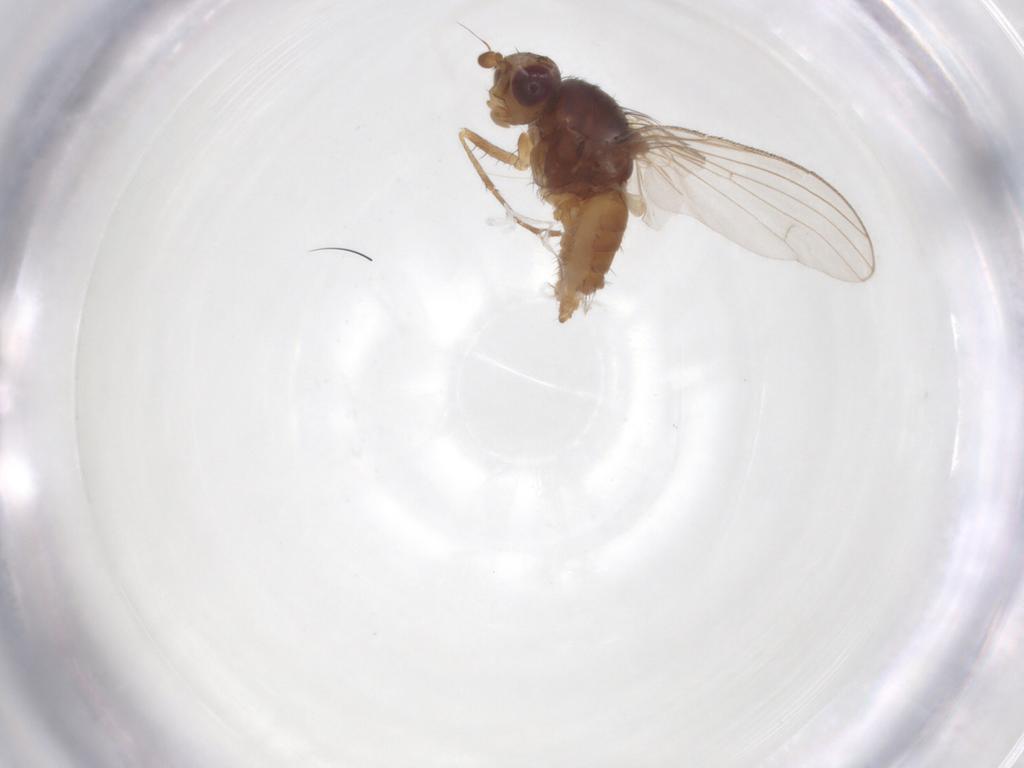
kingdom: Animalia
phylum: Arthropoda
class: Insecta
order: Diptera
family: Heleomyzidae
